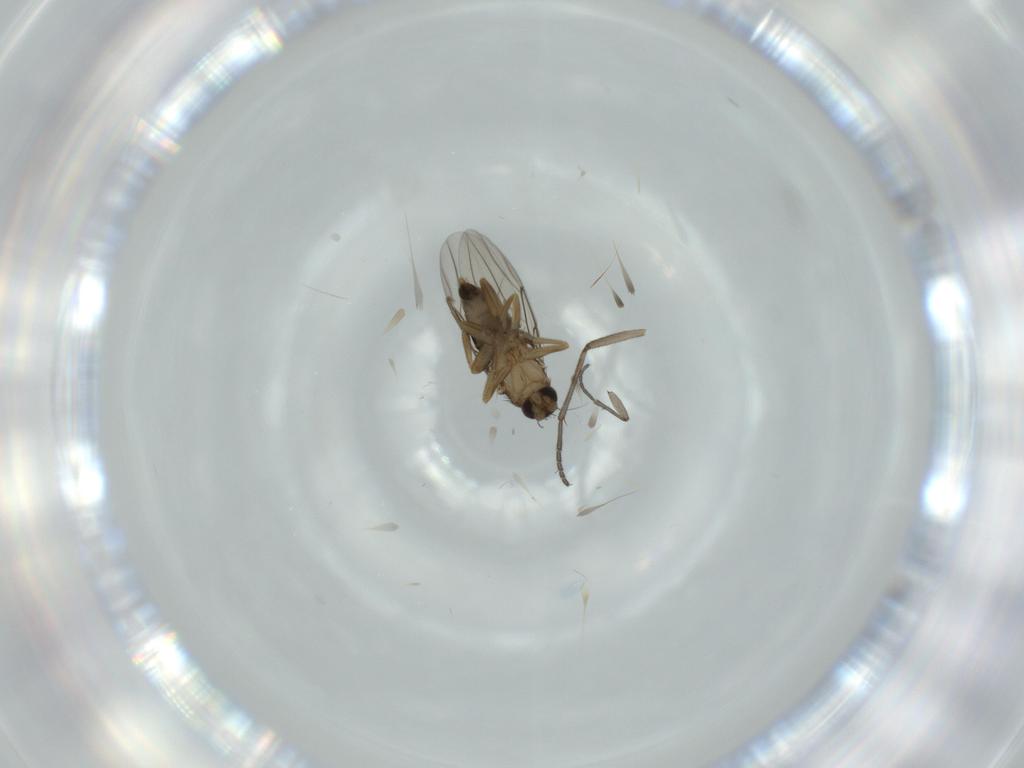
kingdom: Animalia
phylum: Arthropoda
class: Insecta
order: Diptera
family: Phoridae
